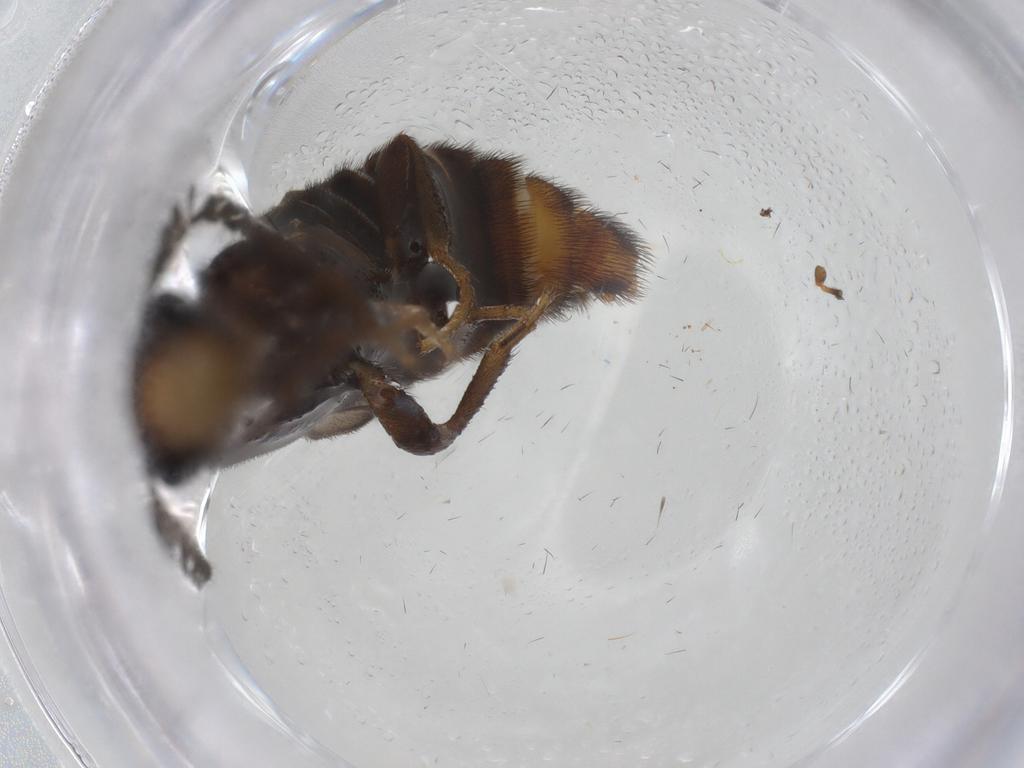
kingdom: Animalia
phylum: Arthropoda
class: Insecta
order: Coleoptera
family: Phengodidae
